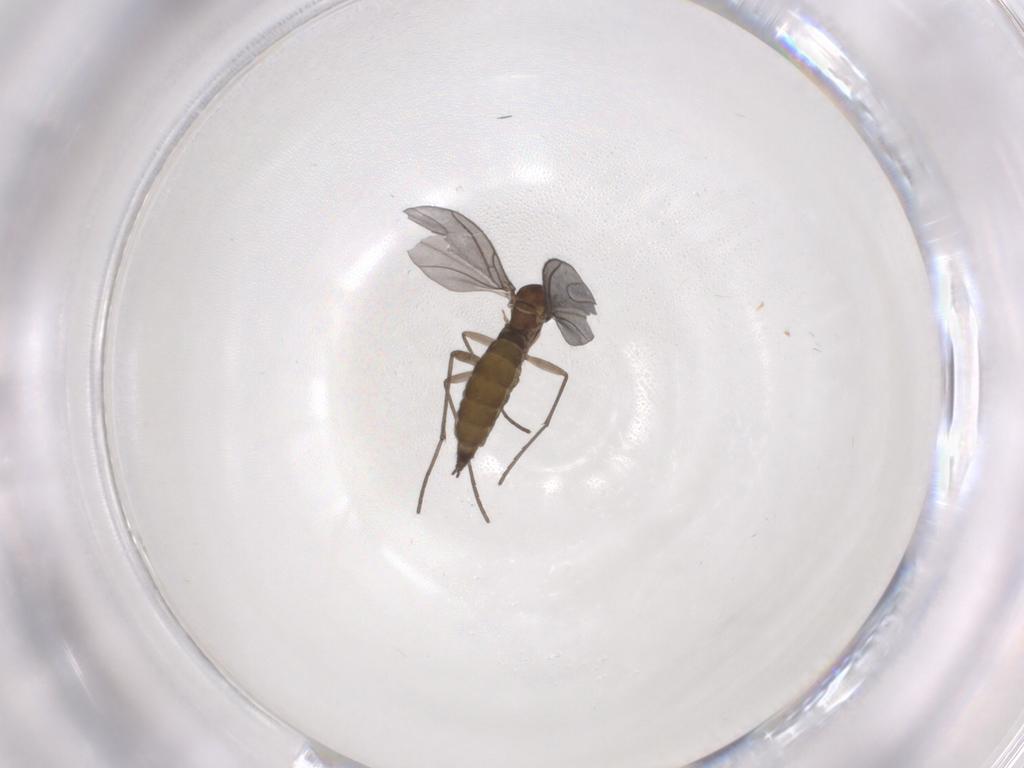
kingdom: Animalia
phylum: Arthropoda
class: Insecta
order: Diptera
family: Sciaridae
